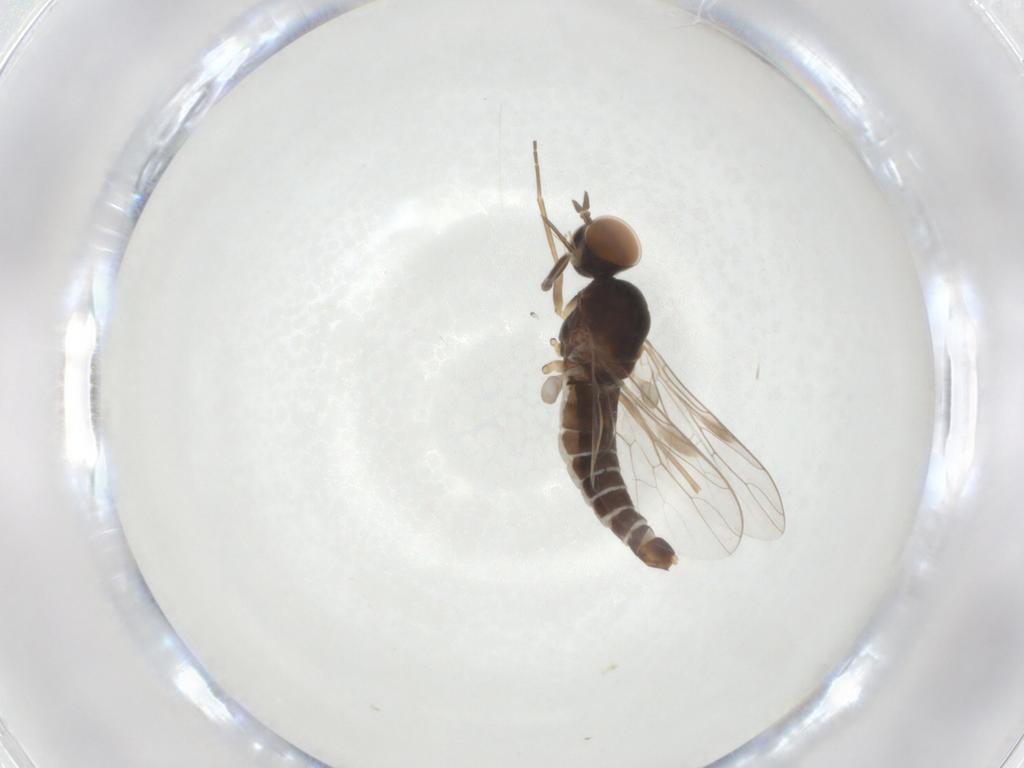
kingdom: Animalia
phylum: Arthropoda
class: Insecta
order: Diptera
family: Scenopinidae
